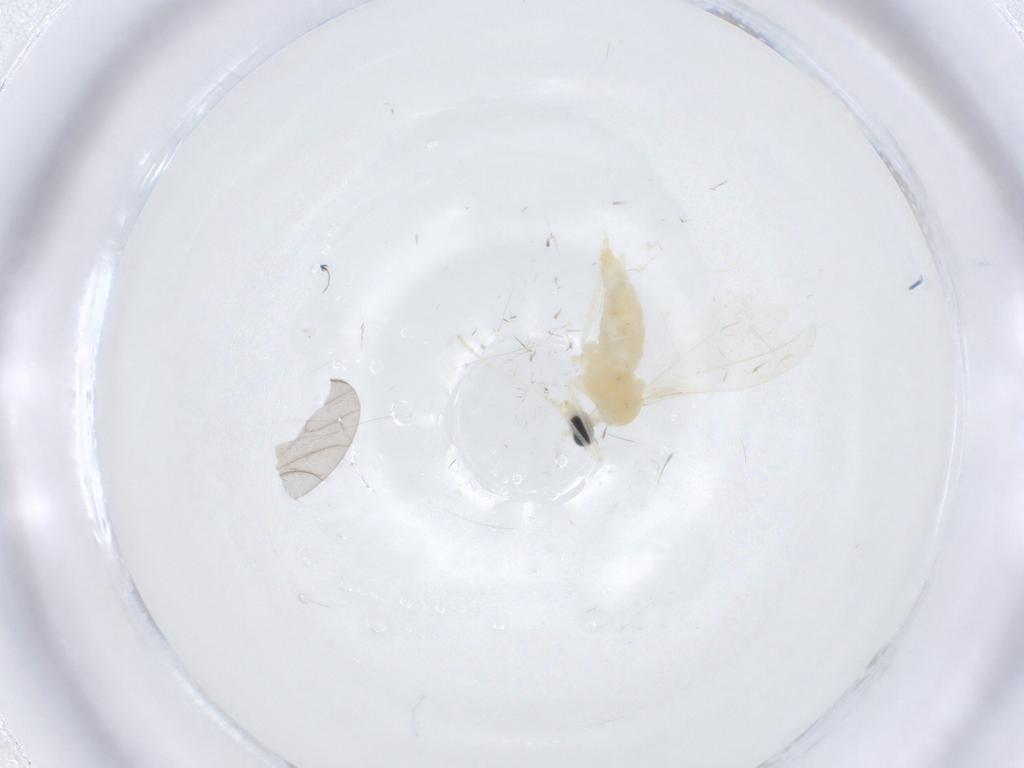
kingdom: Animalia
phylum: Arthropoda
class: Insecta
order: Diptera
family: Cecidomyiidae
